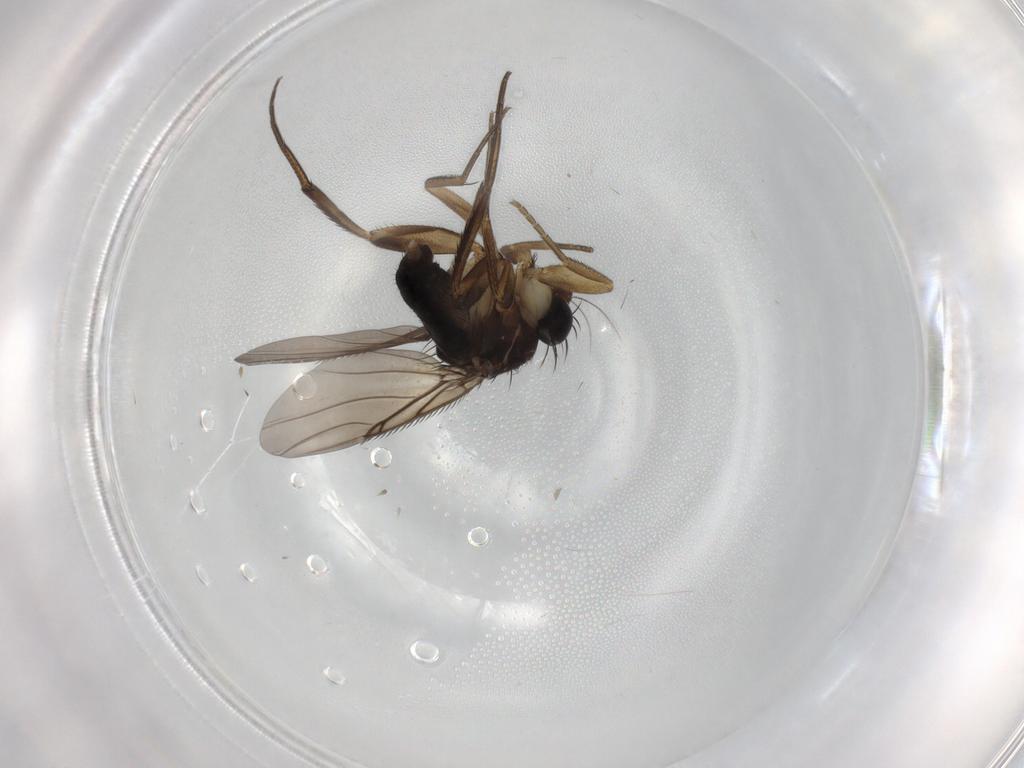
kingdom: Animalia
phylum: Arthropoda
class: Insecta
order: Diptera
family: Phoridae
